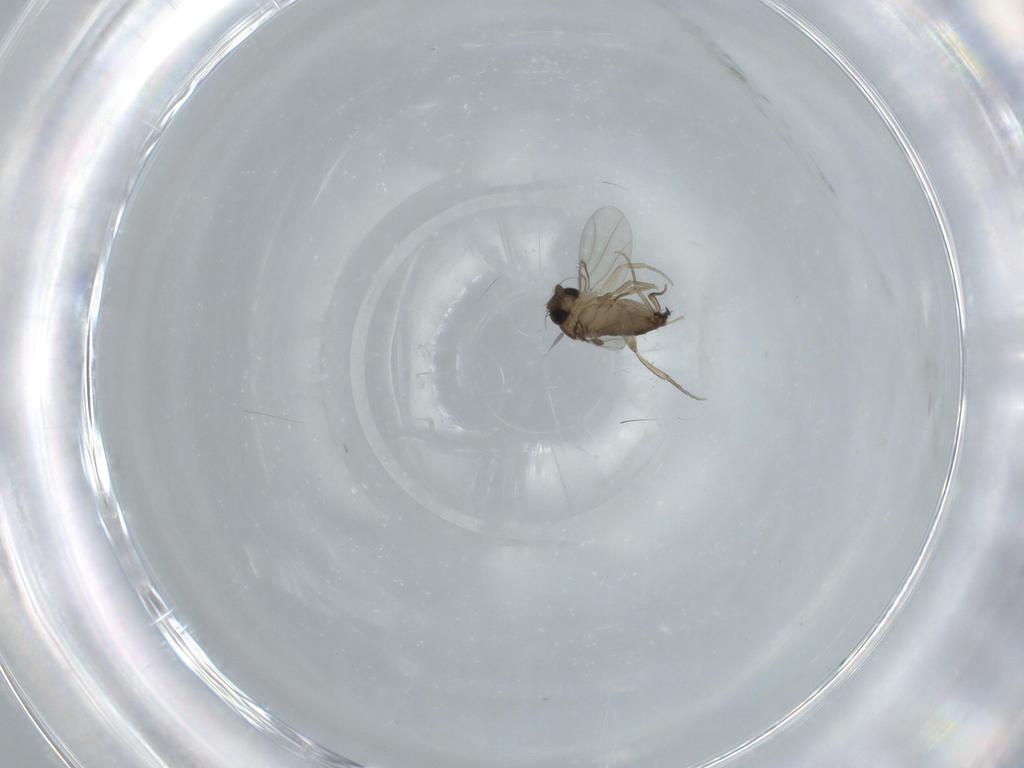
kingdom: Animalia
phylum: Arthropoda
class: Insecta
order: Diptera
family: Phoridae
